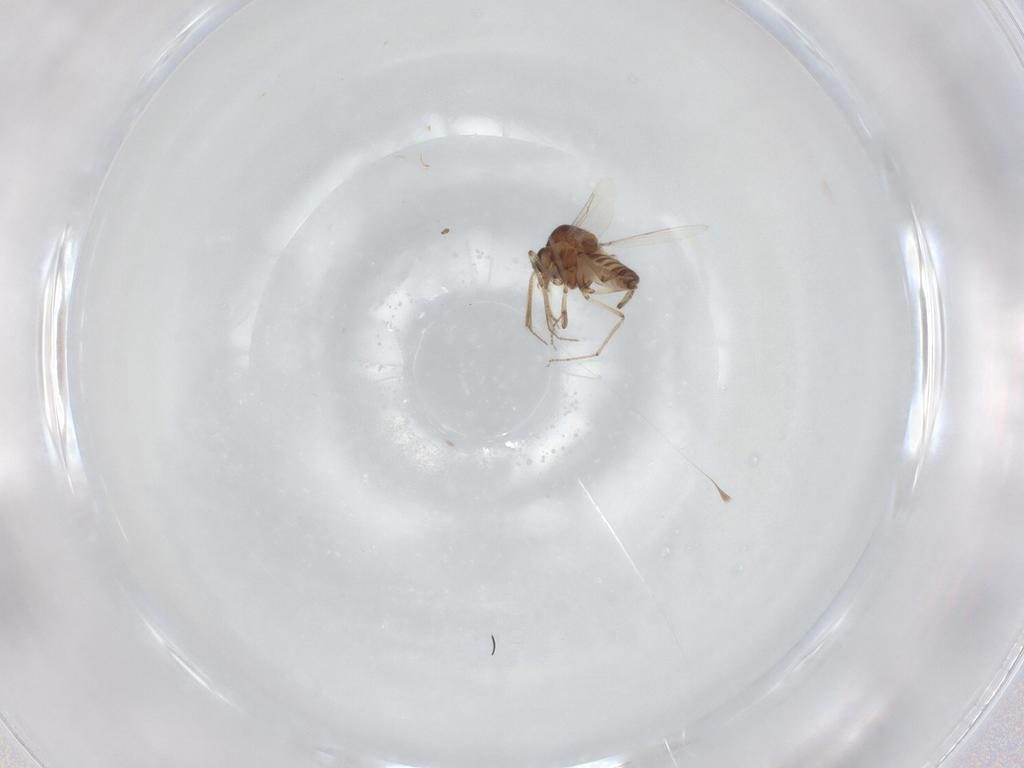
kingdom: Animalia
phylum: Arthropoda
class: Insecta
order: Diptera
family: Ceratopogonidae
